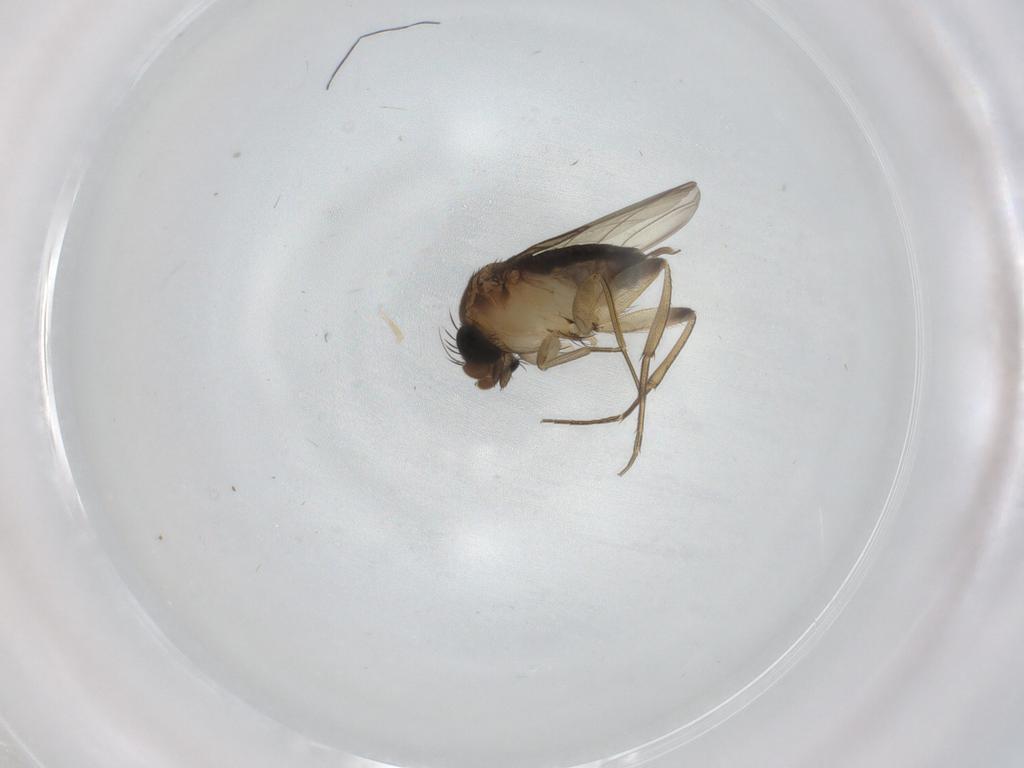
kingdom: Animalia
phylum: Arthropoda
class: Insecta
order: Diptera
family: Phoridae
